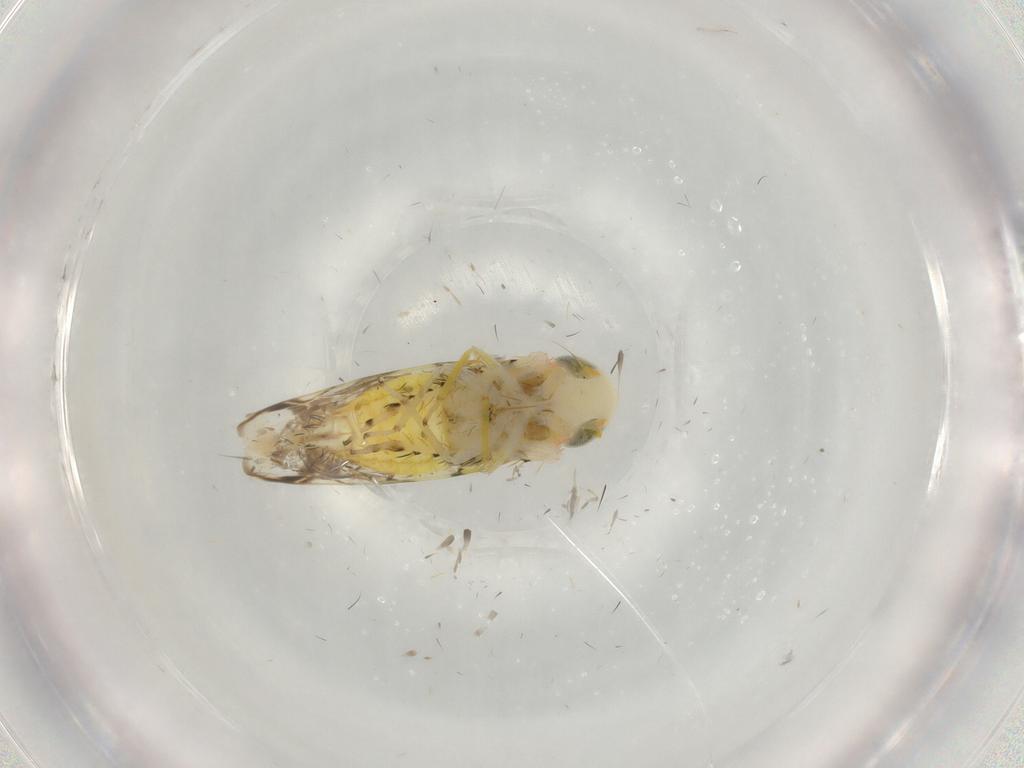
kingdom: Animalia
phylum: Arthropoda
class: Insecta
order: Hemiptera
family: Cicadellidae
